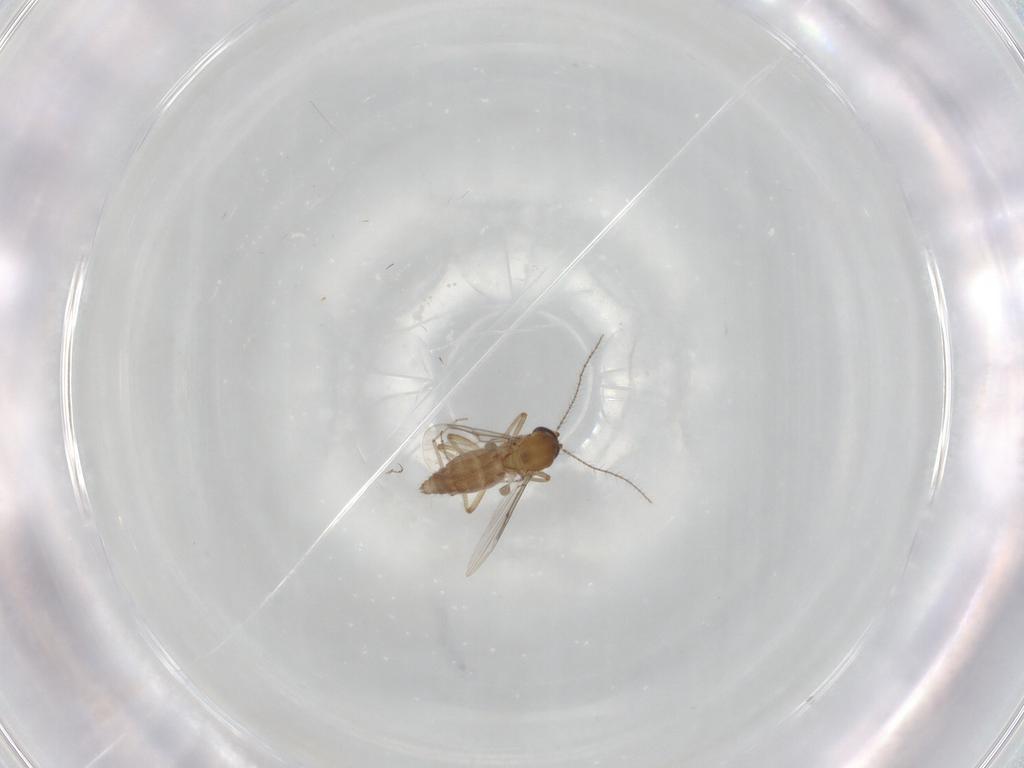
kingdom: Animalia
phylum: Arthropoda
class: Insecta
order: Diptera
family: Ceratopogonidae
